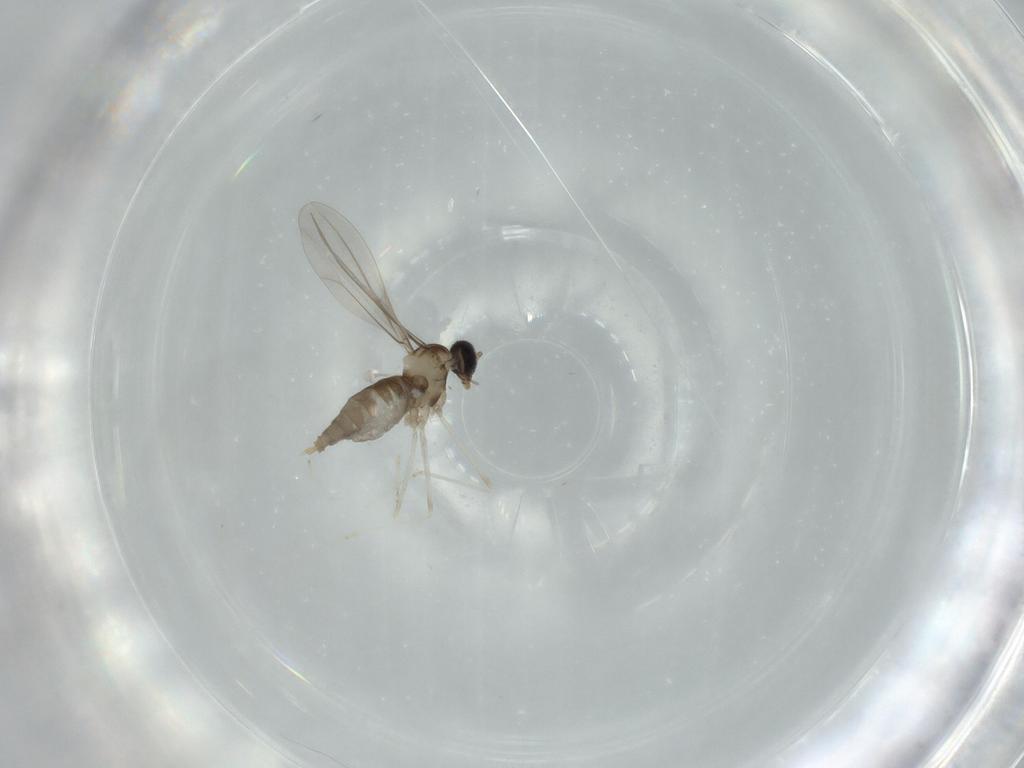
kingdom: Animalia
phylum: Arthropoda
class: Insecta
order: Diptera
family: Cecidomyiidae
